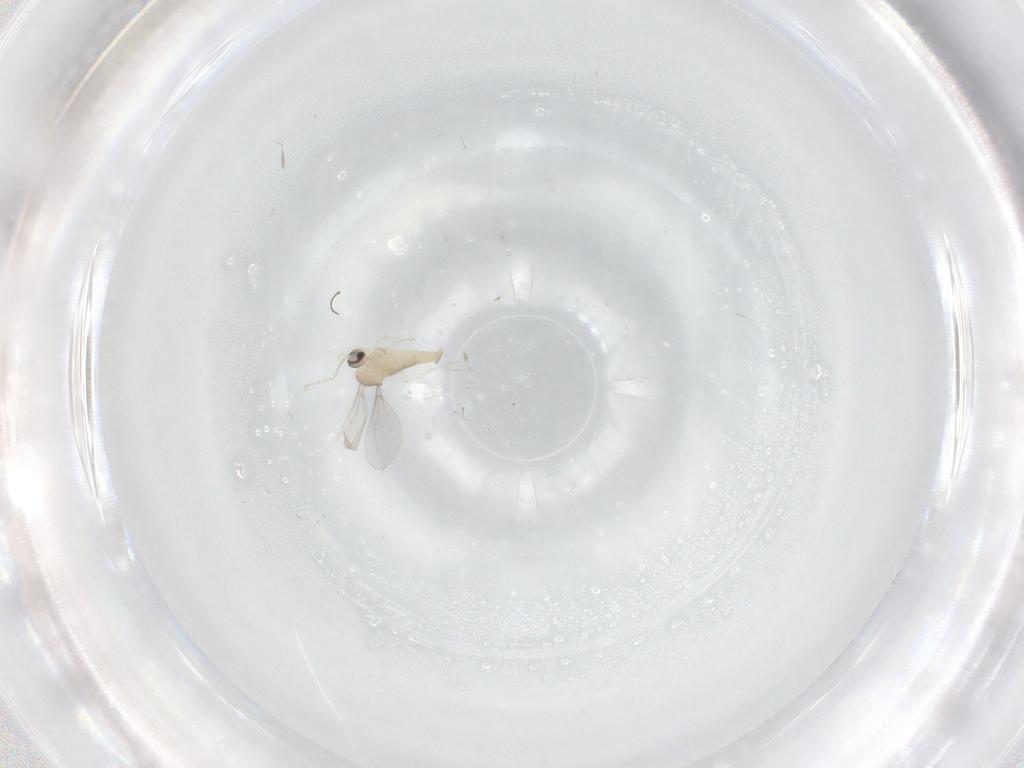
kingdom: Animalia
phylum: Arthropoda
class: Insecta
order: Diptera
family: Cecidomyiidae
